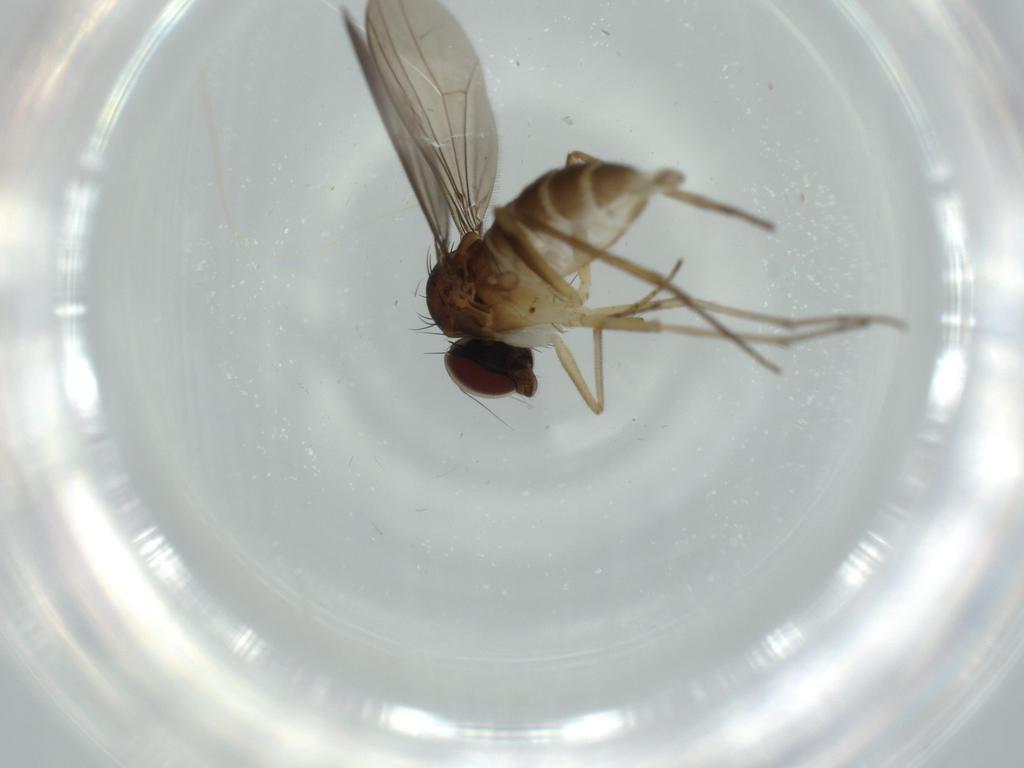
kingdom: Animalia
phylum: Arthropoda
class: Insecta
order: Diptera
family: Dolichopodidae
